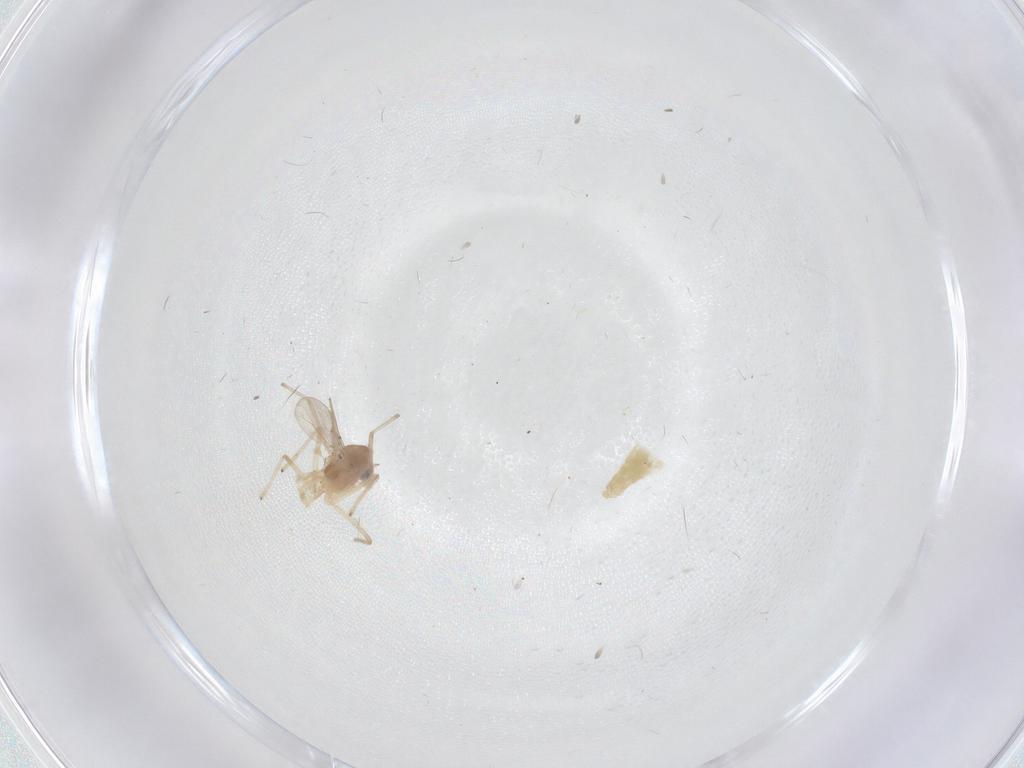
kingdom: Animalia
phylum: Arthropoda
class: Insecta
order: Diptera
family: Chironomidae
